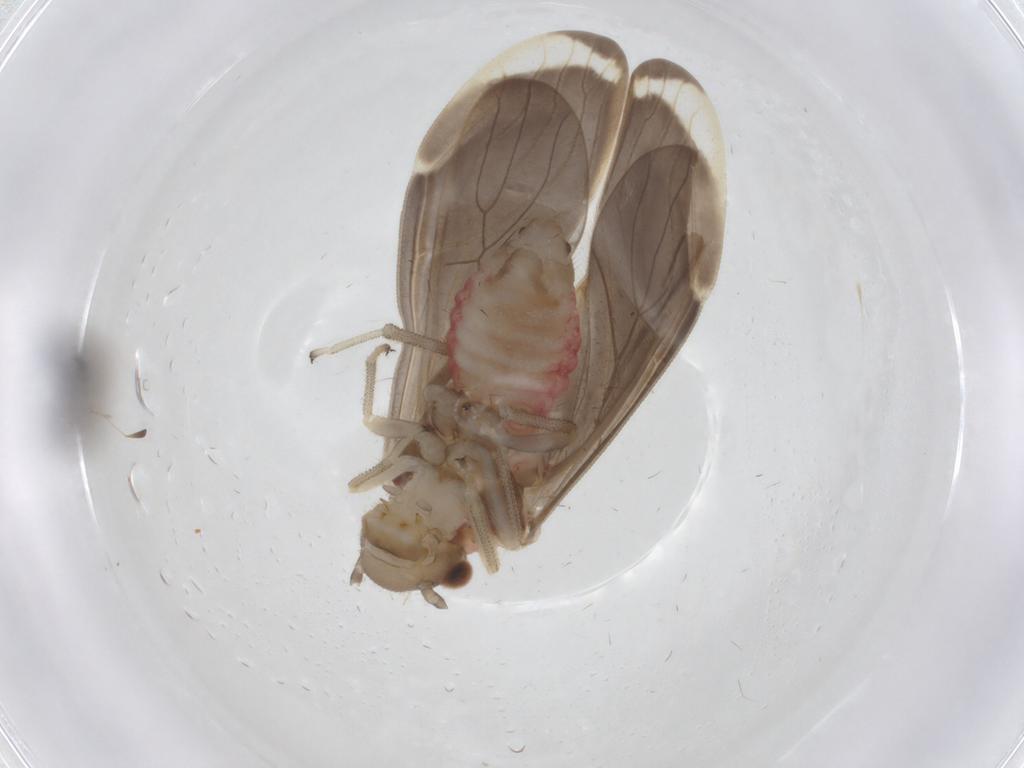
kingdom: Animalia
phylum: Arthropoda
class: Insecta
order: Psocodea
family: Amphipsocidae
